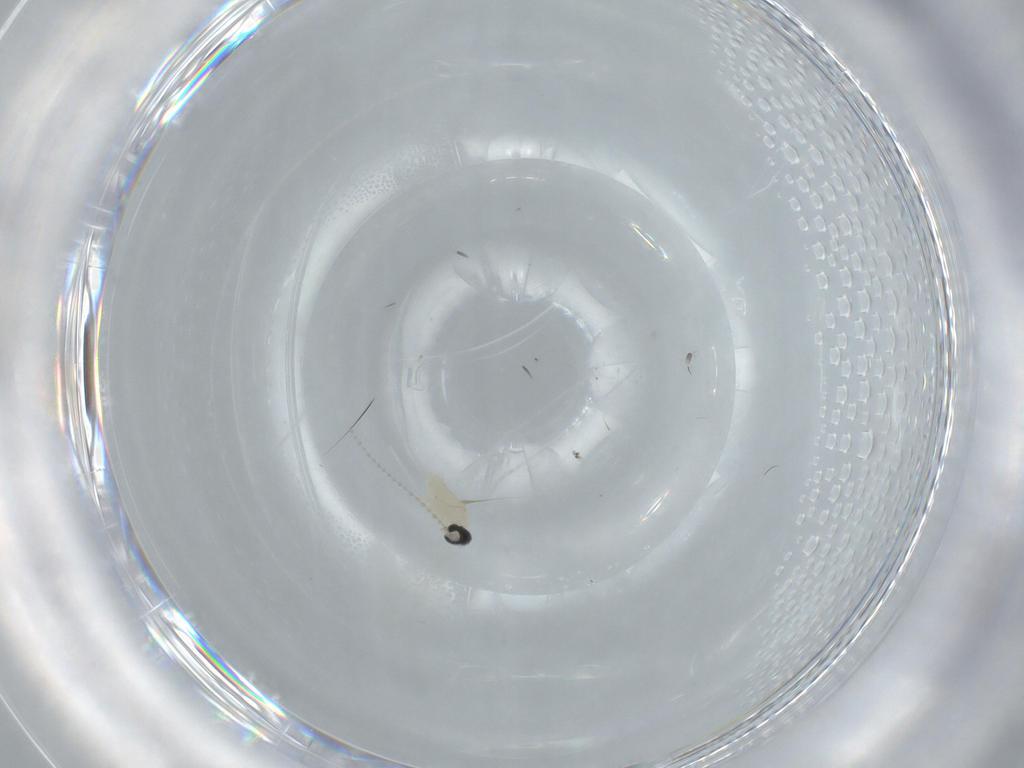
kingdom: Animalia
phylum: Arthropoda
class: Insecta
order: Diptera
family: Cecidomyiidae
